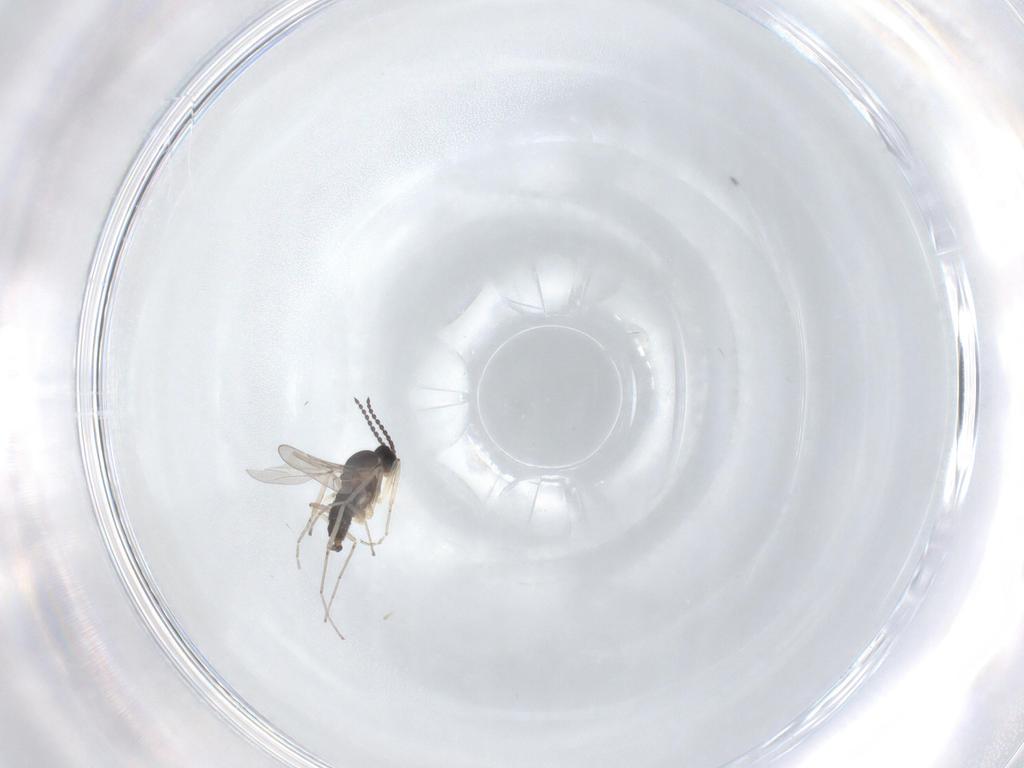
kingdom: Animalia
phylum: Arthropoda
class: Insecta
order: Diptera
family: Cecidomyiidae
